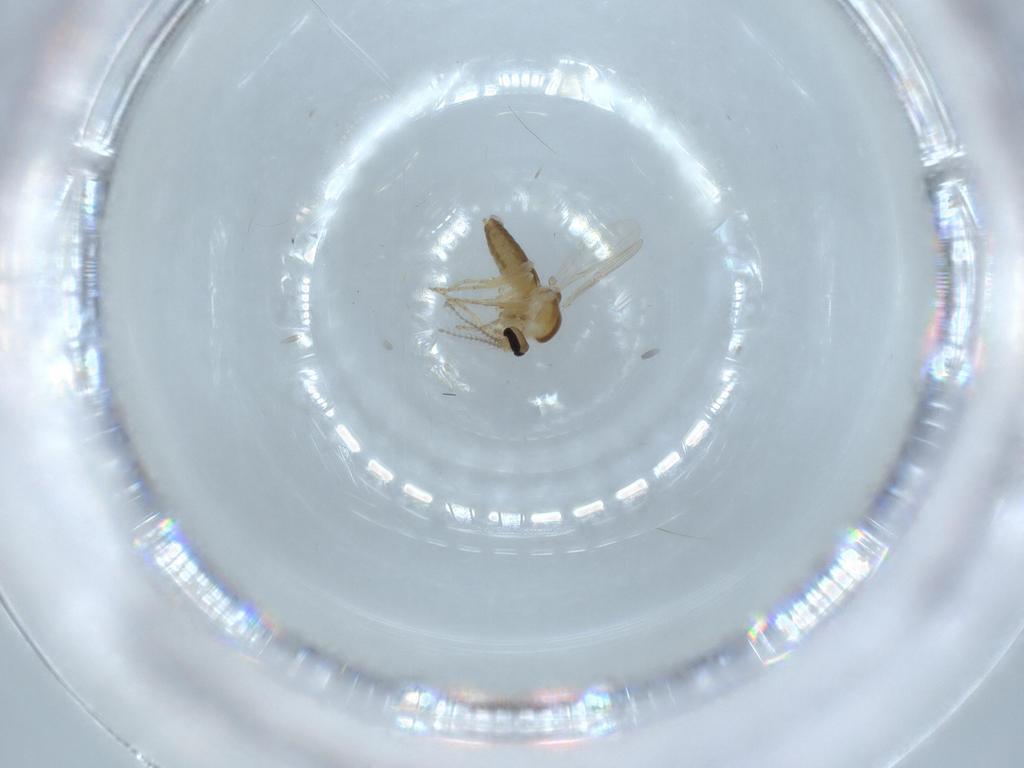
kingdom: Animalia
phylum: Arthropoda
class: Insecta
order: Diptera
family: Ceratopogonidae
